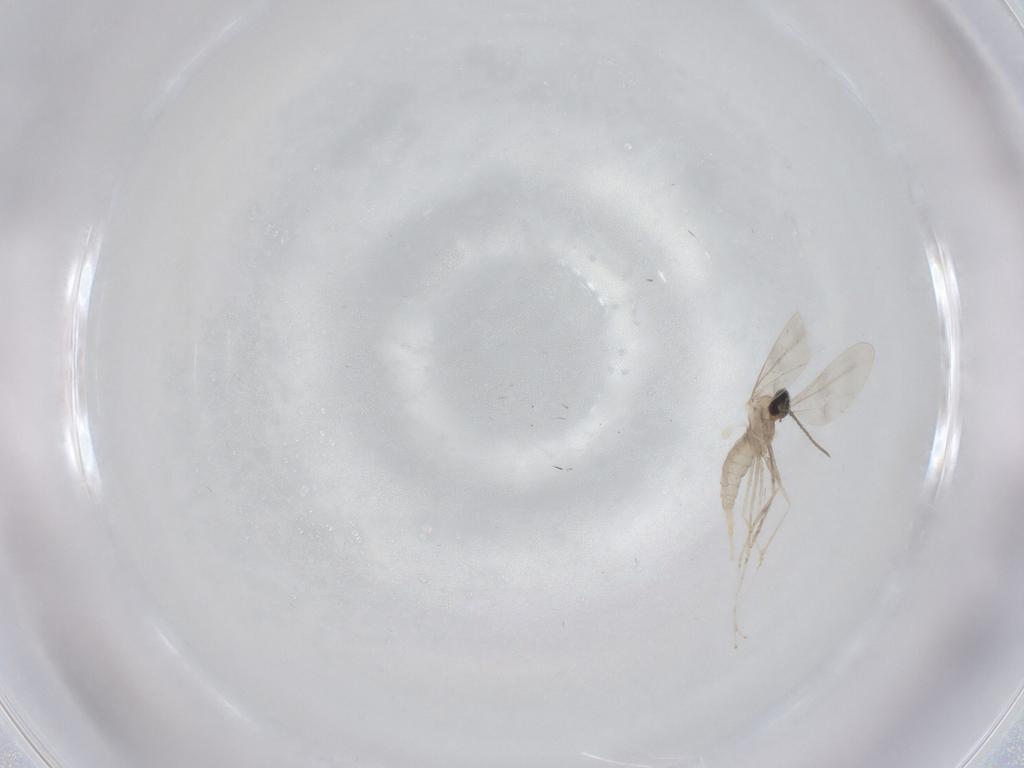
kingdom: Animalia
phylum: Arthropoda
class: Insecta
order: Diptera
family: Cecidomyiidae
